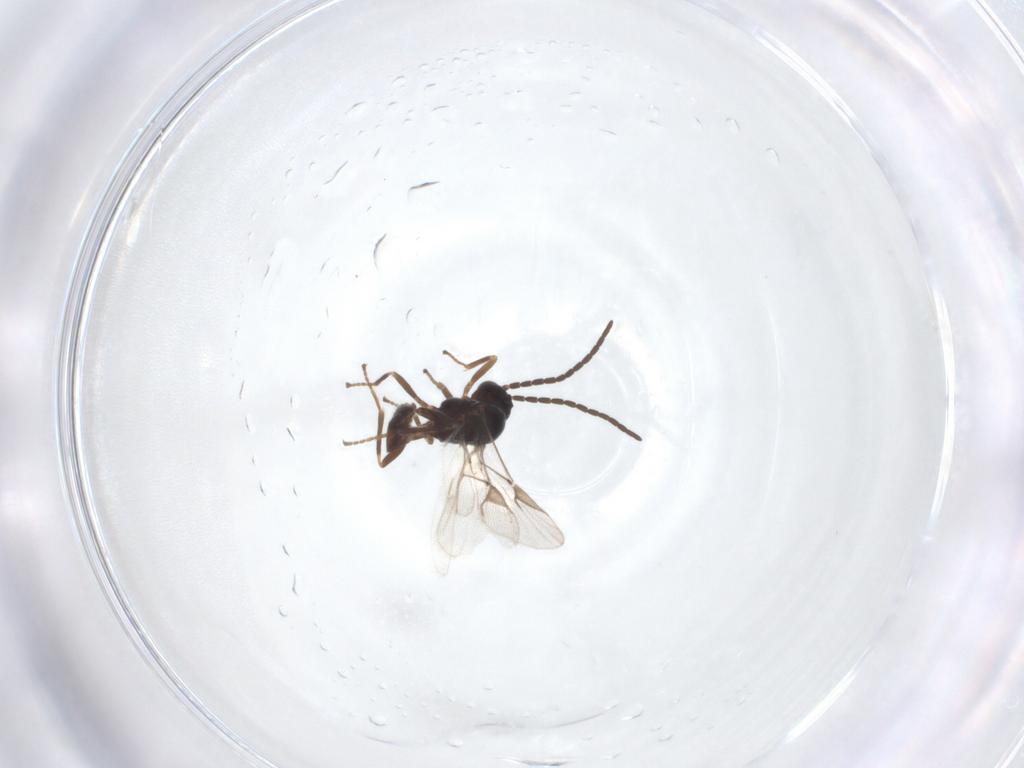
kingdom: Animalia
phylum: Arthropoda
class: Insecta
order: Hymenoptera
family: Braconidae
